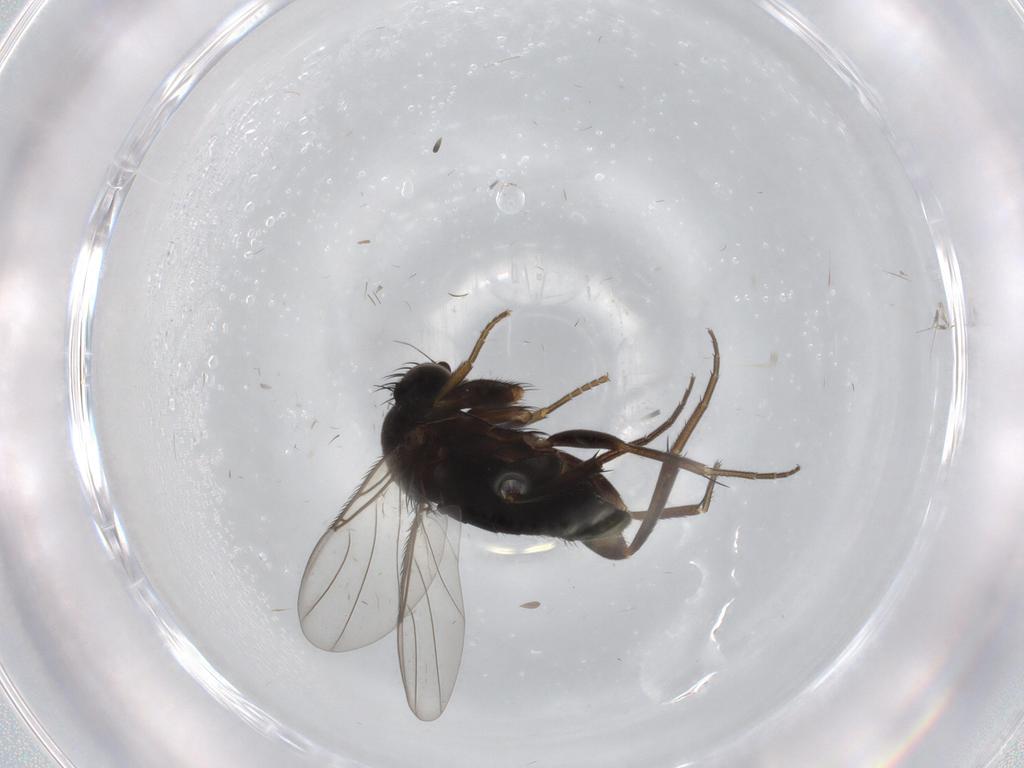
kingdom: Animalia
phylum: Arthropoda
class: Insecta
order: Diptera
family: Phoridae
